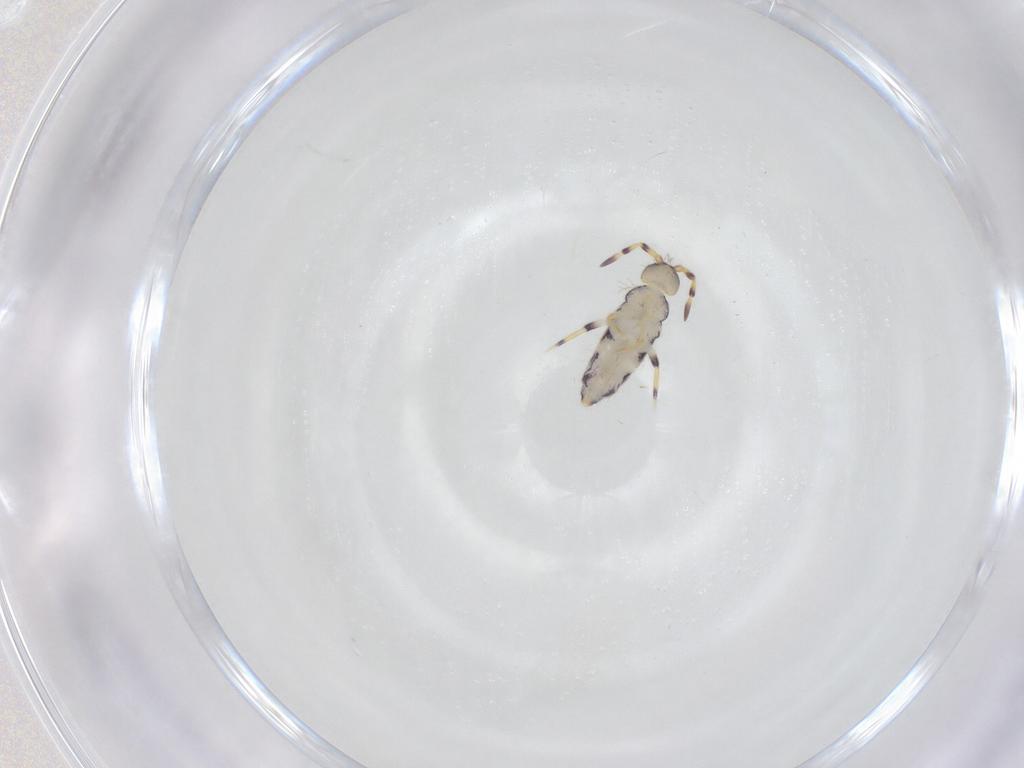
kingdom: Animalia
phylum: Arthropoda
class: Collembola
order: Entomobryomorpha
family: Isotomidae
